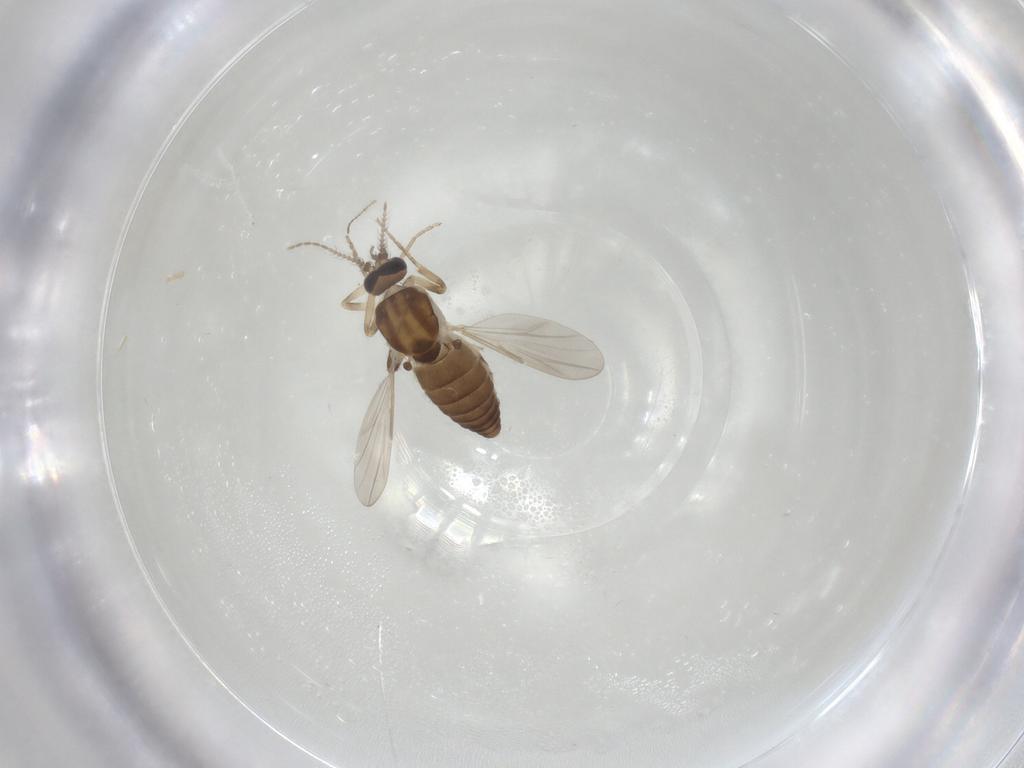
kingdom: Animalia
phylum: Arthropoda
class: Insecta
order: Diptera
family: Ceratopogonidae
